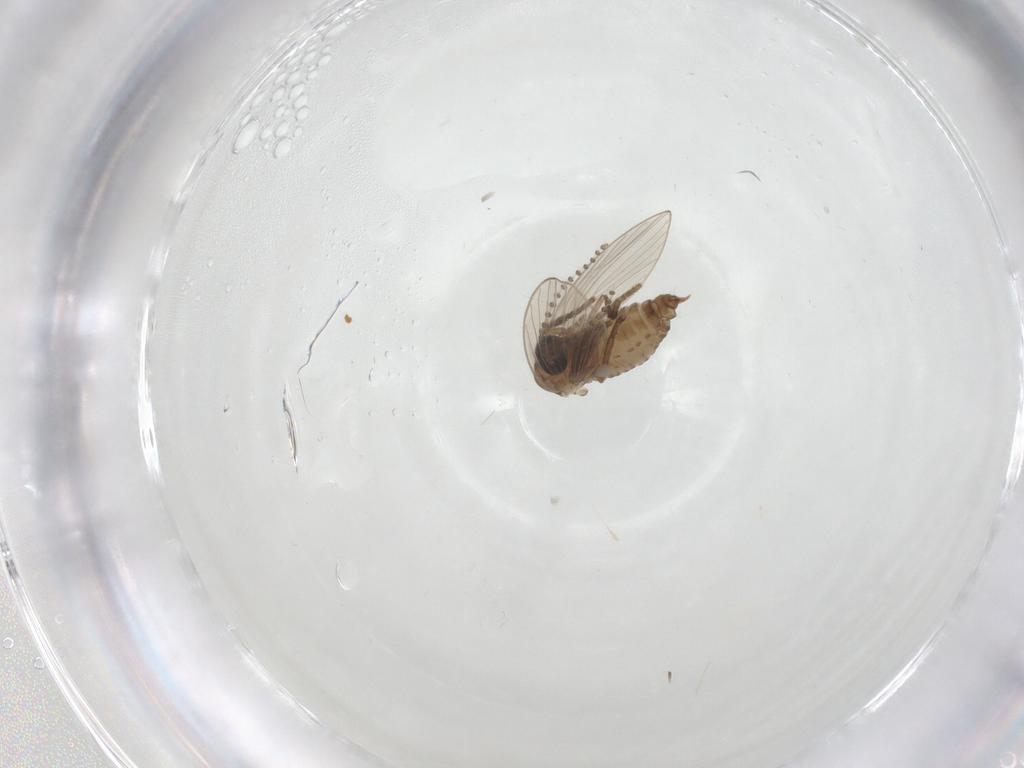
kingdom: Animalia
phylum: Arthropoda
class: Insecta
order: Diptera
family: Psychodidae
